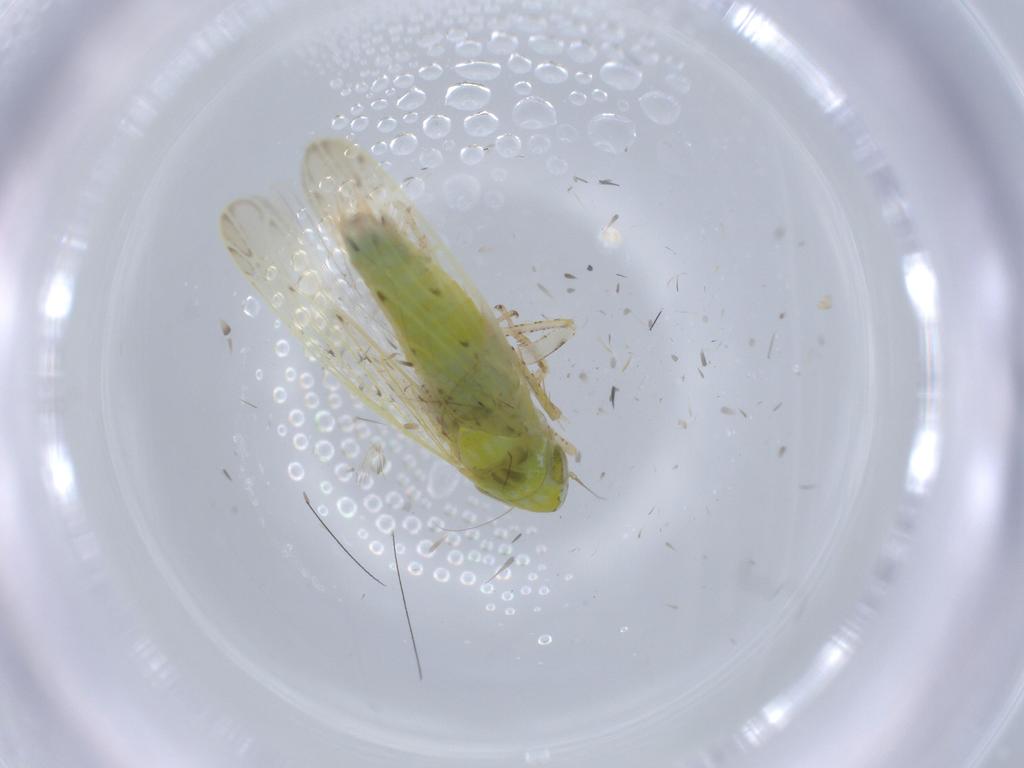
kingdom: Animalia
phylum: Arthropoda
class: Insecta
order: Hemiptera
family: Cicadellidae
